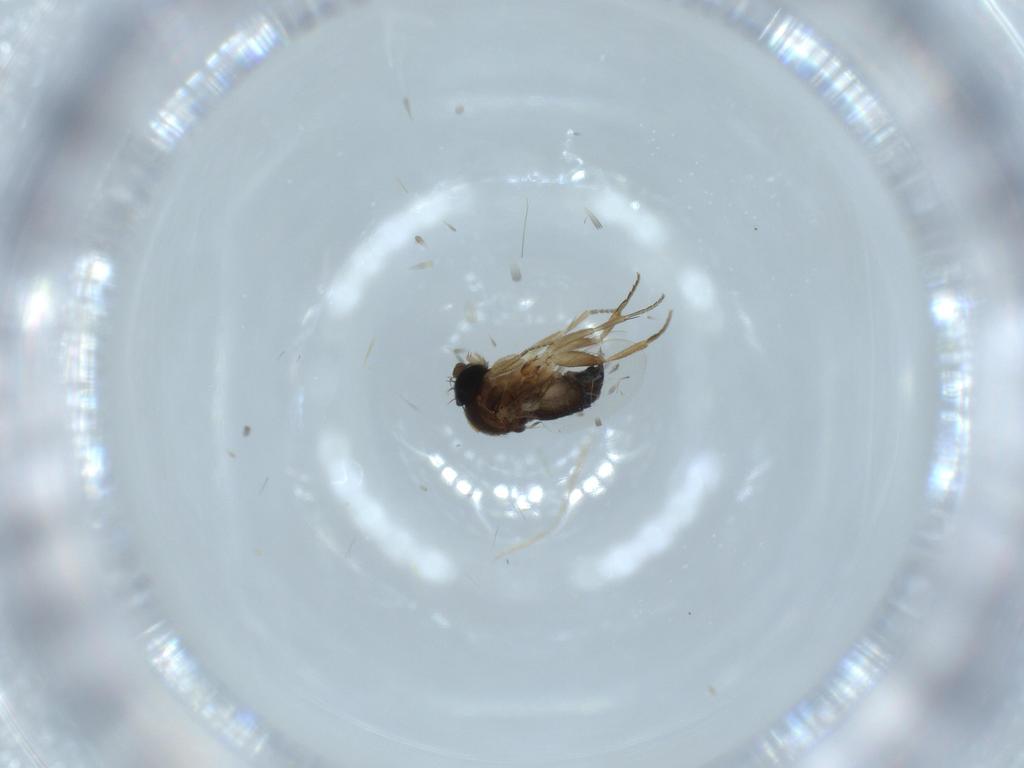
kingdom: Animalia
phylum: Arthropoda
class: Insecta
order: Diptera
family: Phoridae
